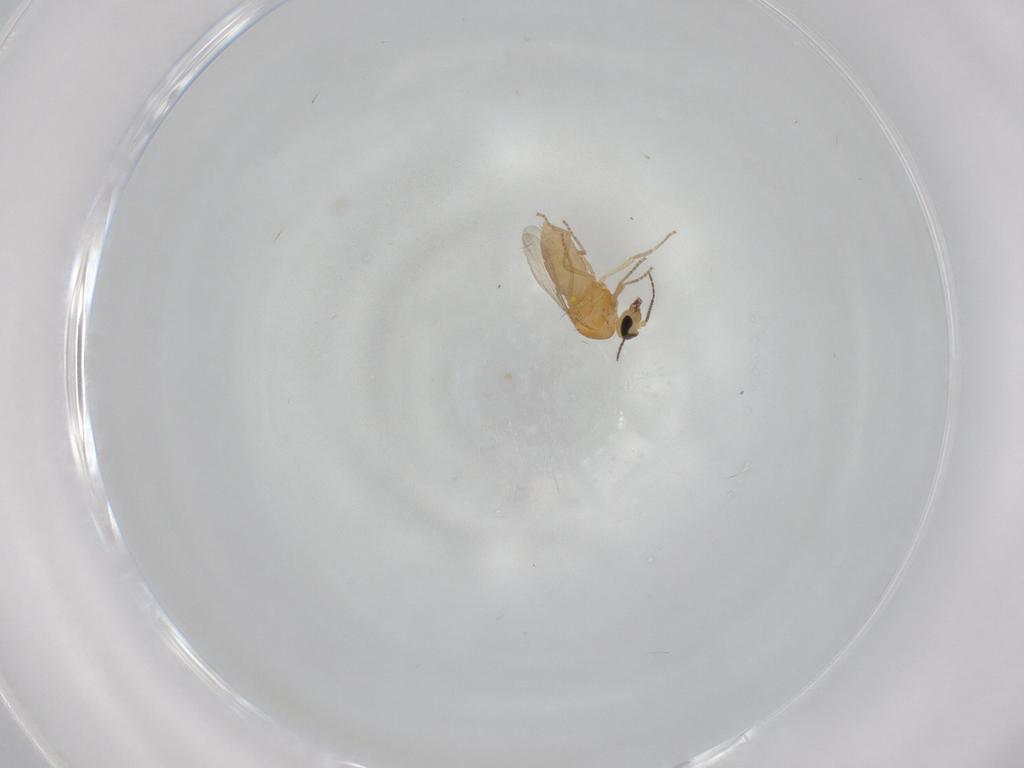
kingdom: Animalia
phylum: Arthropoda
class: Insecta
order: Diptera
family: Ceratopogonidae
